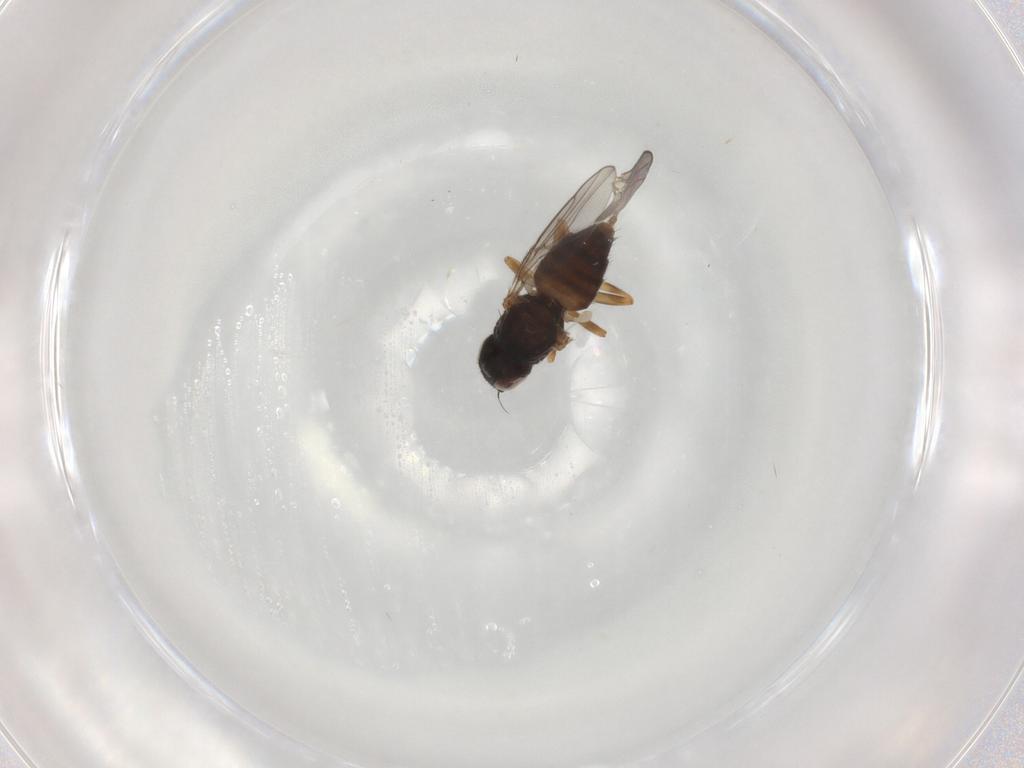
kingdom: Animalia
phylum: Arthropoda
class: Insecta
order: Diptera
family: Chloropidae
